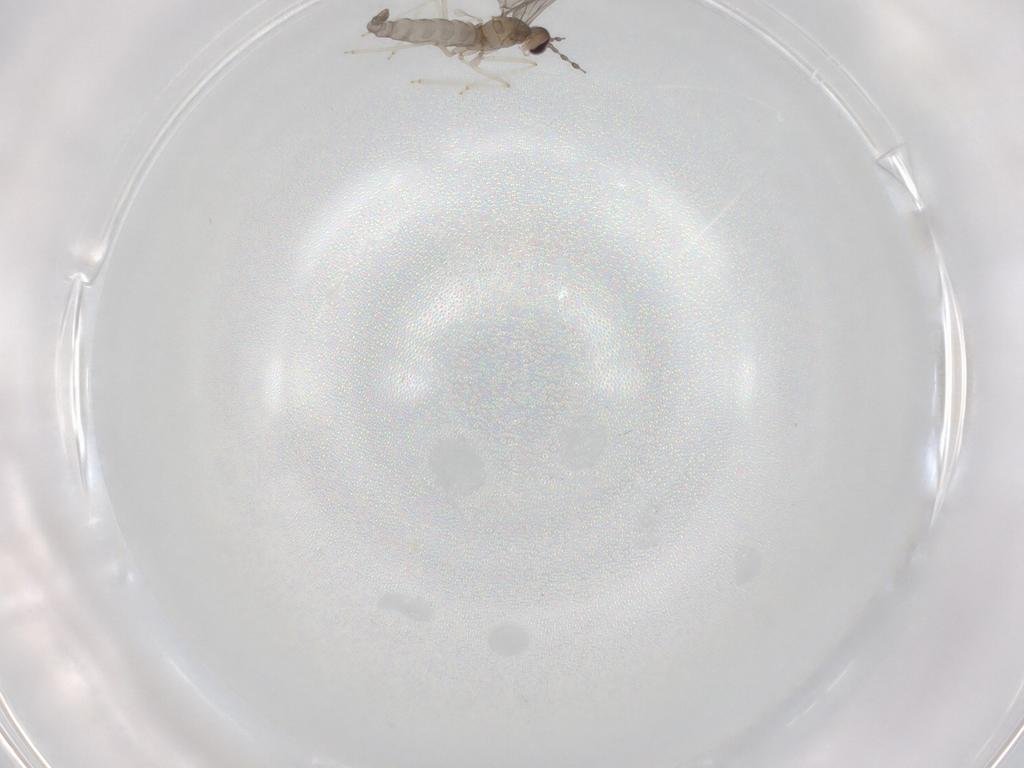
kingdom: Animalia
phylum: Arthropoda
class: Insecta
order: Diptera
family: Cecidomyiidae
